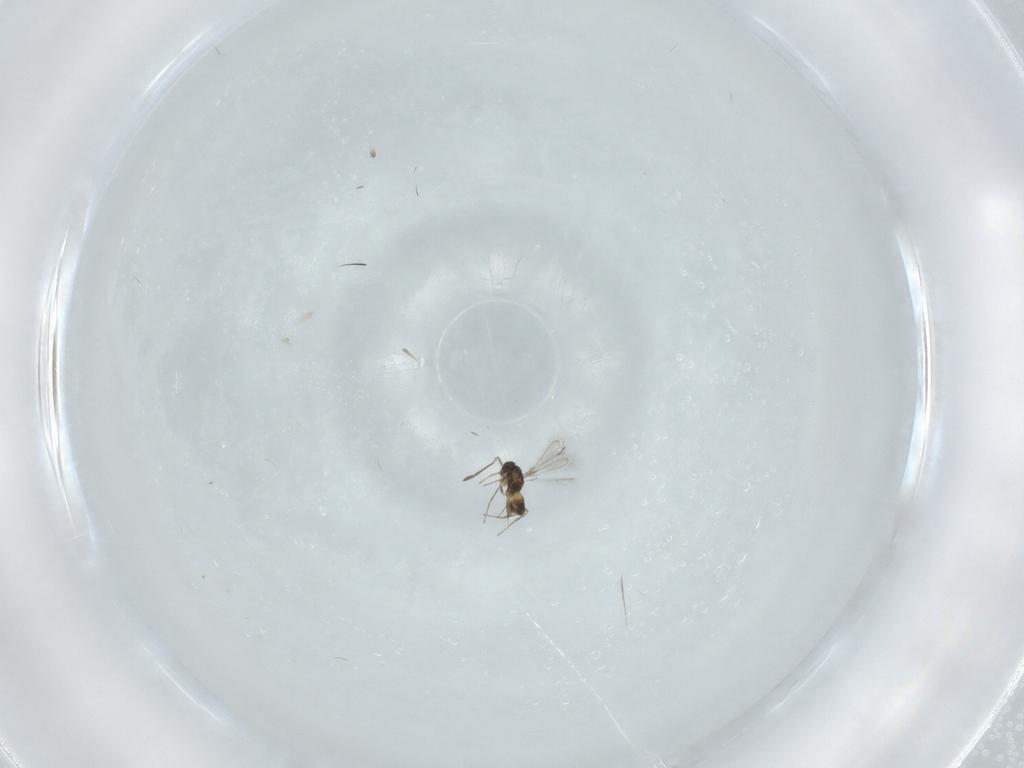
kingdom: Animalia
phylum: Arthropoda
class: Insecta
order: Hymenoptera
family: Mymaridae
